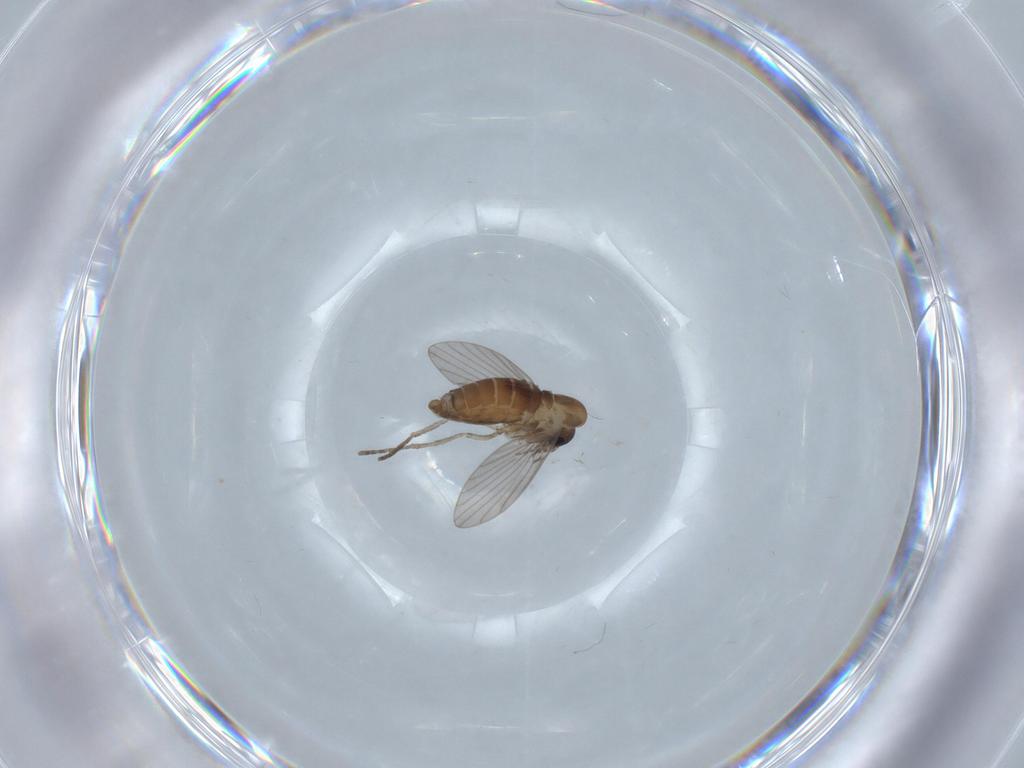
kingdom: Animalia
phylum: Arthropoda
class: Insecta
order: Diptera
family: Psychodidae
